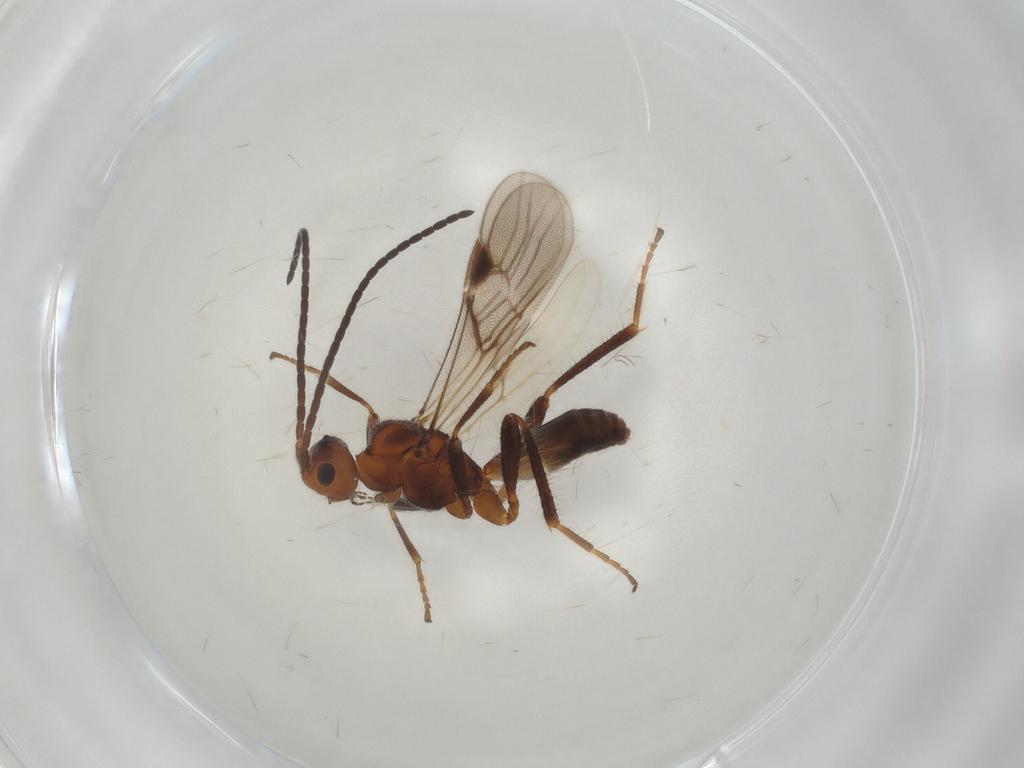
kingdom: Animalia
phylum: Arthropoda
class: Insecta
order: Hymenoptera
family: Braconidae
